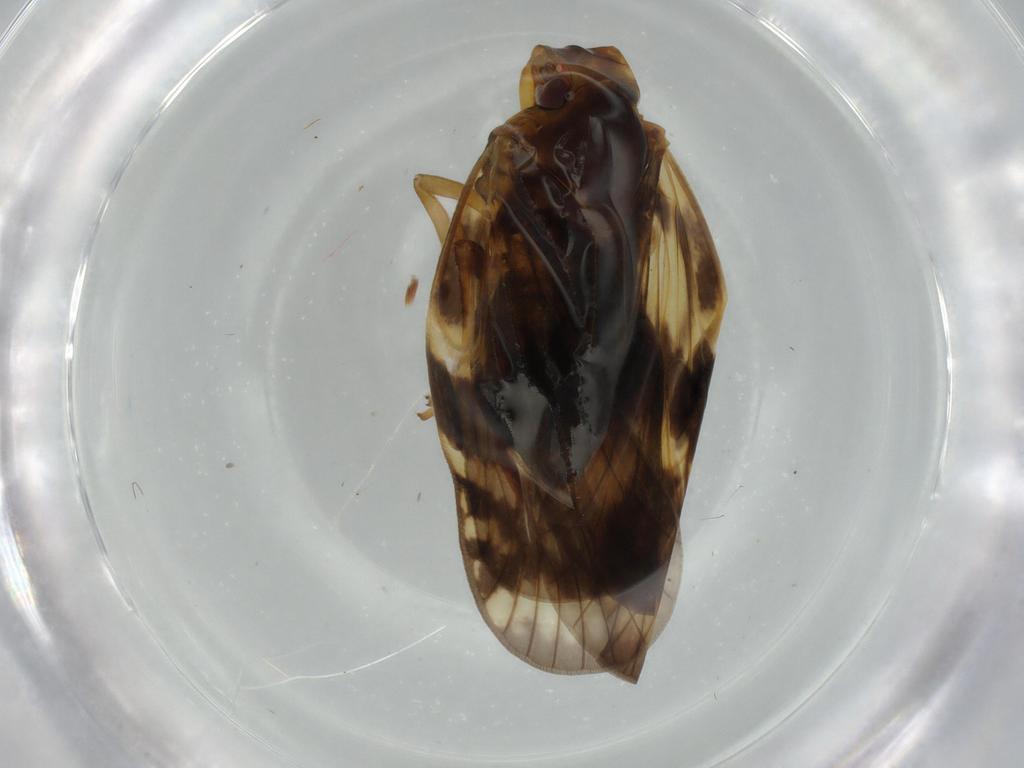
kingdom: Animalia
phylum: Arthropoda
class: Insecta
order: Hemiptera
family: Cixiidae
